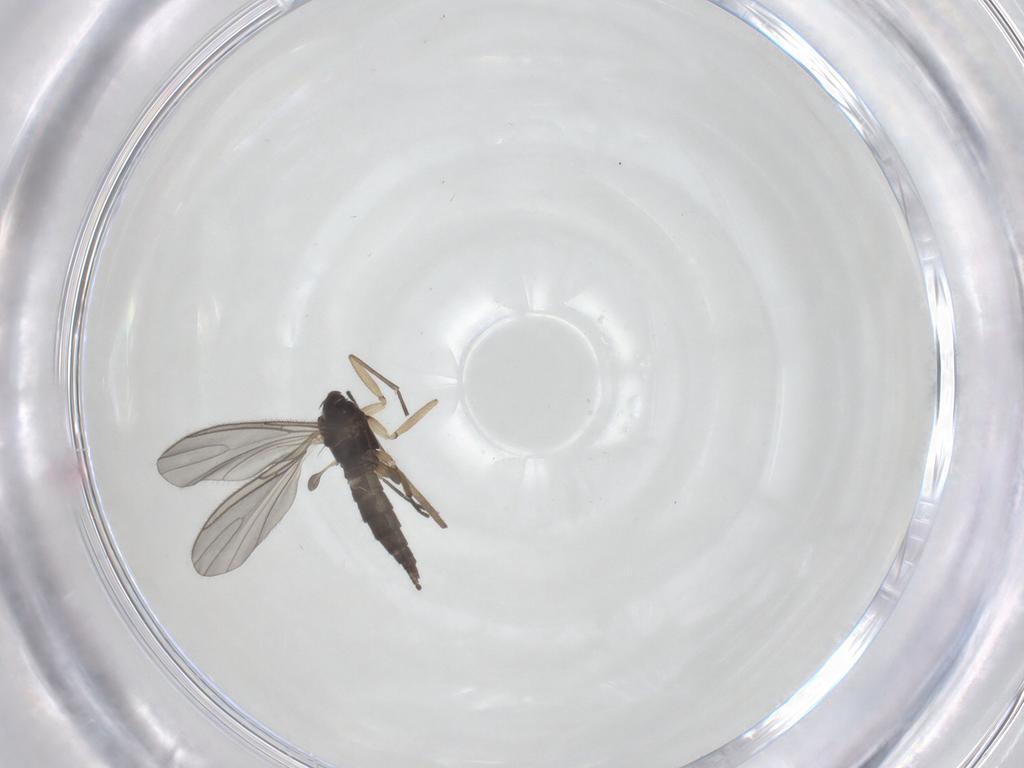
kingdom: Animalia
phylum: Arthropoda
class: Insecta
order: Diptera
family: Sciaridae
